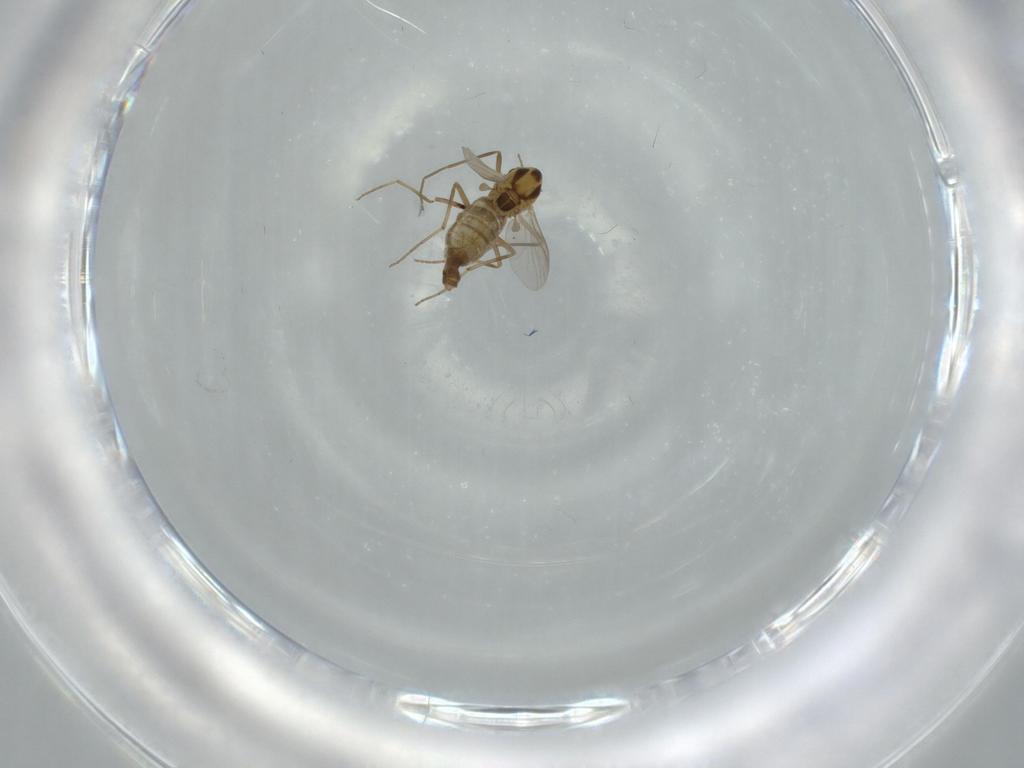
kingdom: Animalia
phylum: Arthropoda
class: Insecta
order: Diptera
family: Chironomidae
